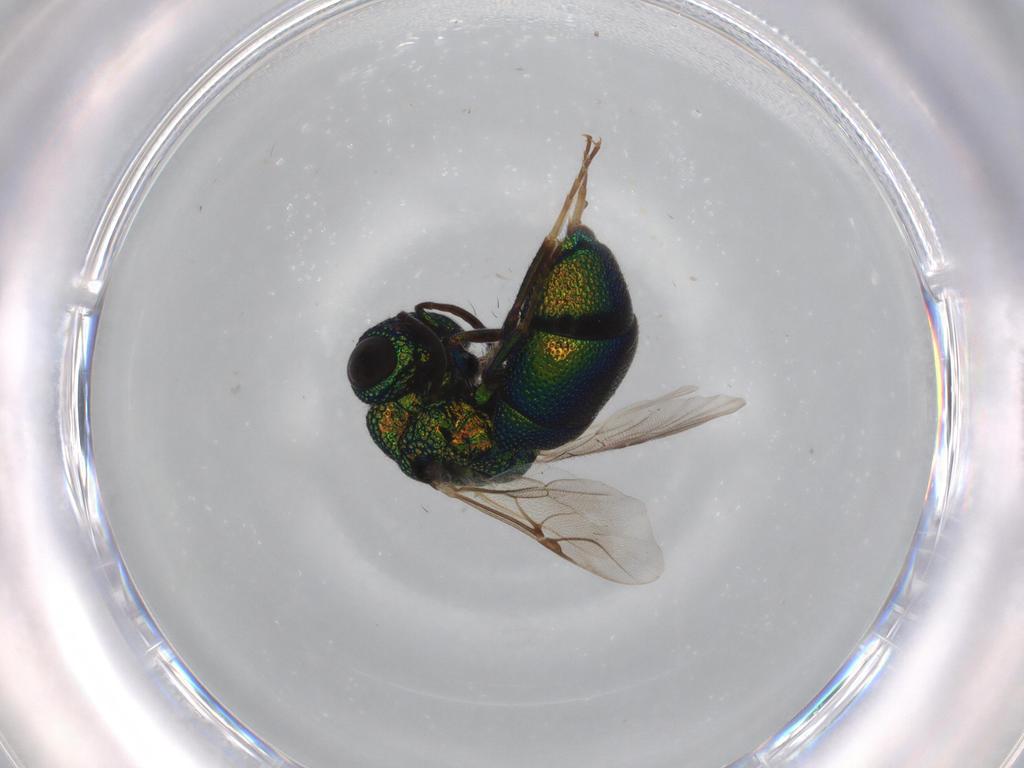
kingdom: Animalia
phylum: Arthropoda
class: Insecta
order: Hymenoptera
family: Chrysididae
